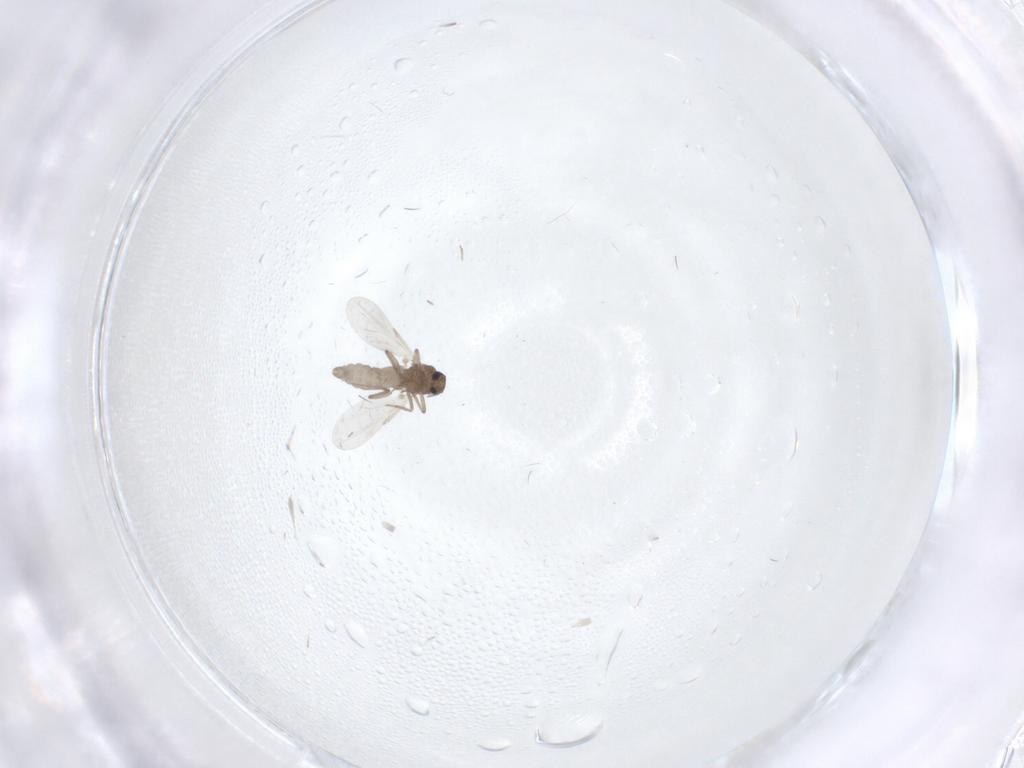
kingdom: Animalia
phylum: Arthropoda
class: Insecta
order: Diptera
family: Ceratopogonidae
